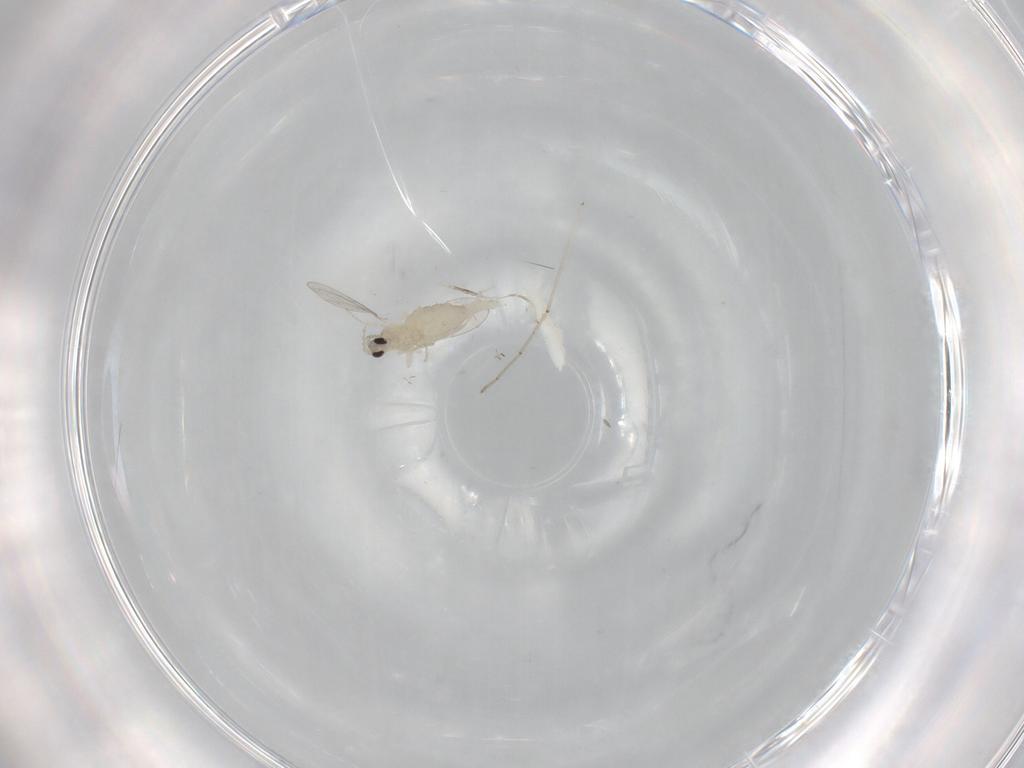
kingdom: Animalia
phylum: Arthropoda
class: Insecta
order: Diptera
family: Cecidomyiidae
